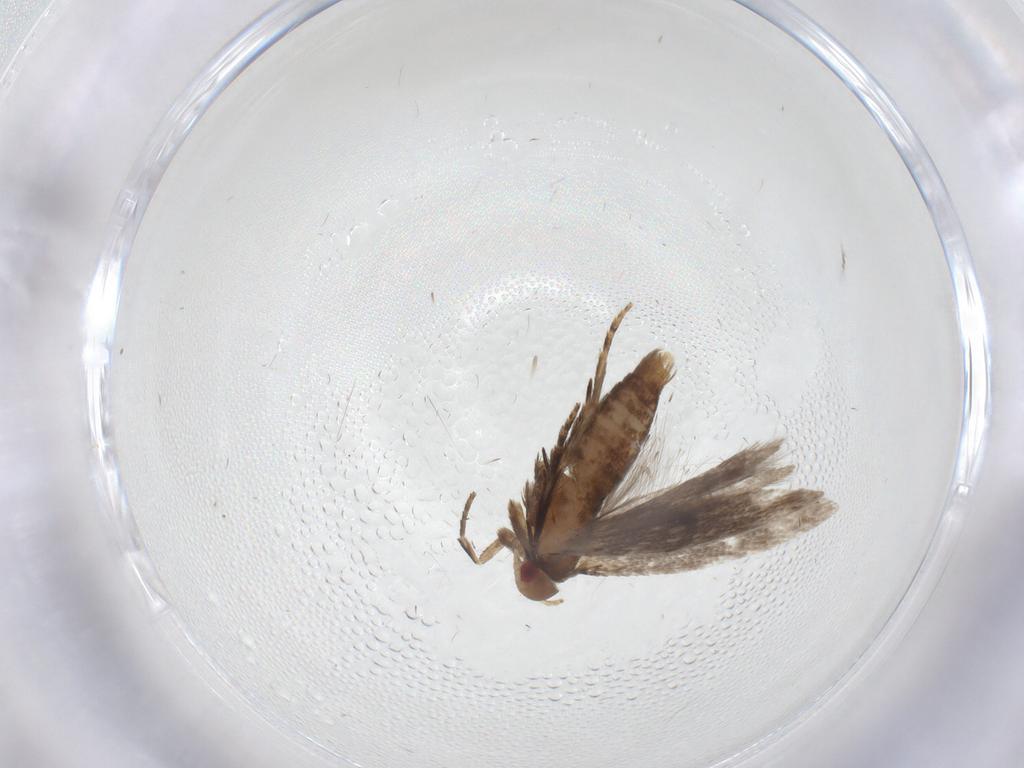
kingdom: Animalia
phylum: Arthropoda
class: Insecta
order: Lepidoptera
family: Gelechiidae
